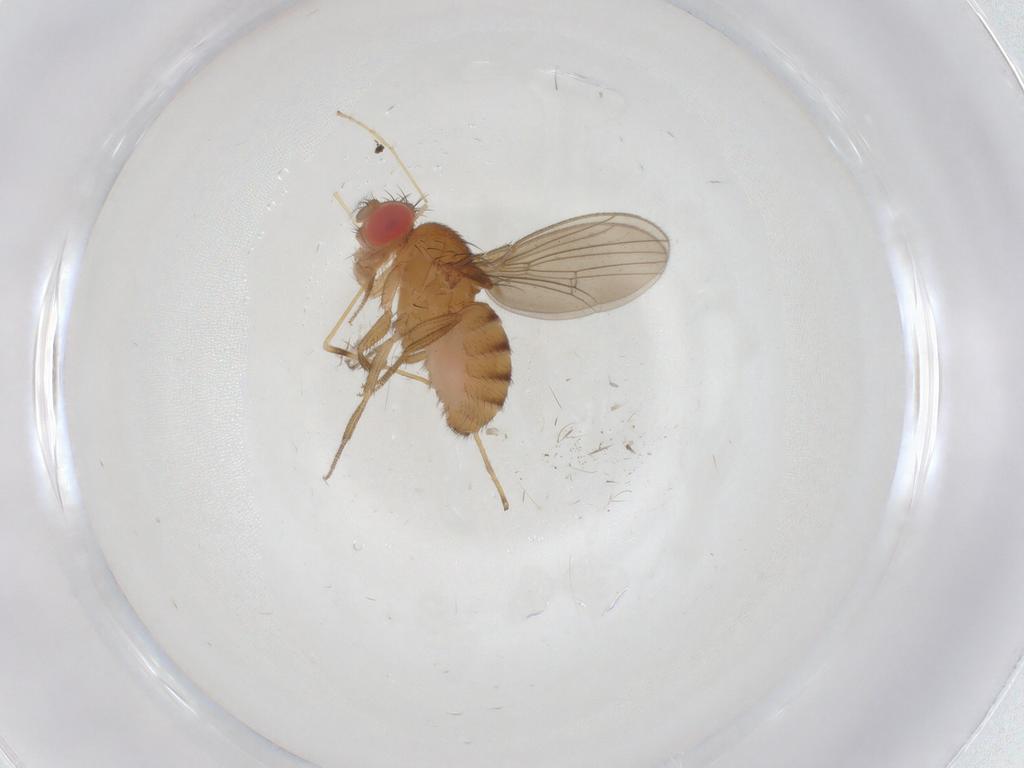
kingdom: Animalia
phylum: Arthropoda
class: Insecta
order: Diptera
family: Drosophilidae
